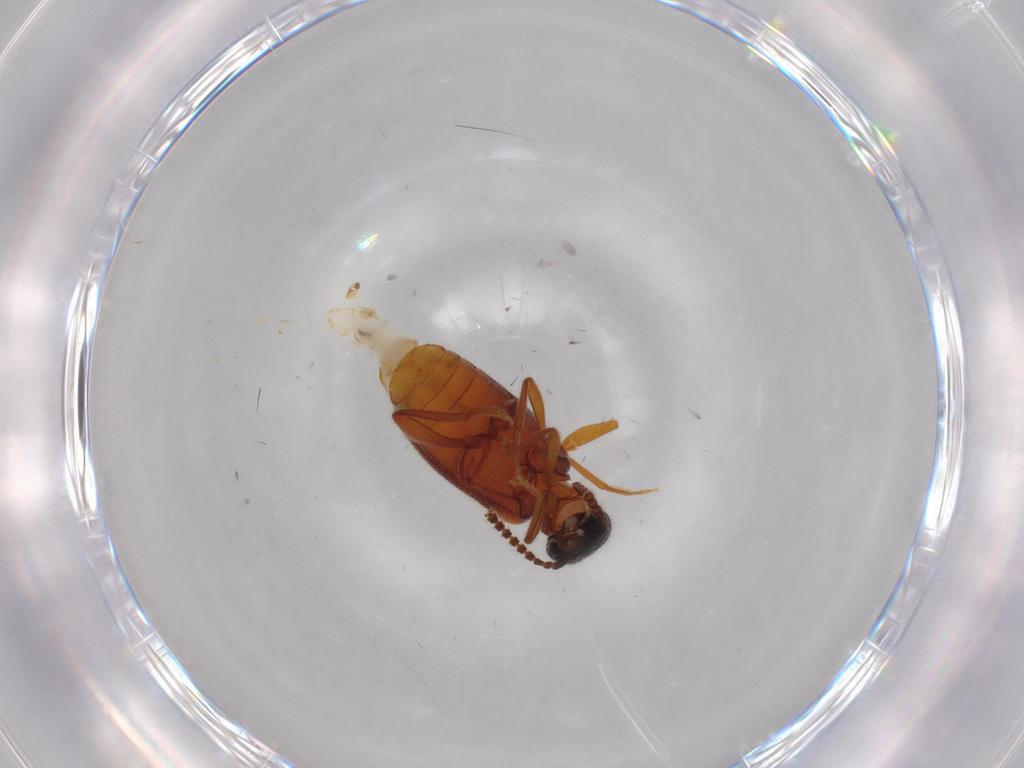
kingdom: Animalia
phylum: Arthropoda
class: Insecta
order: Coleoptera
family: Aderidae
